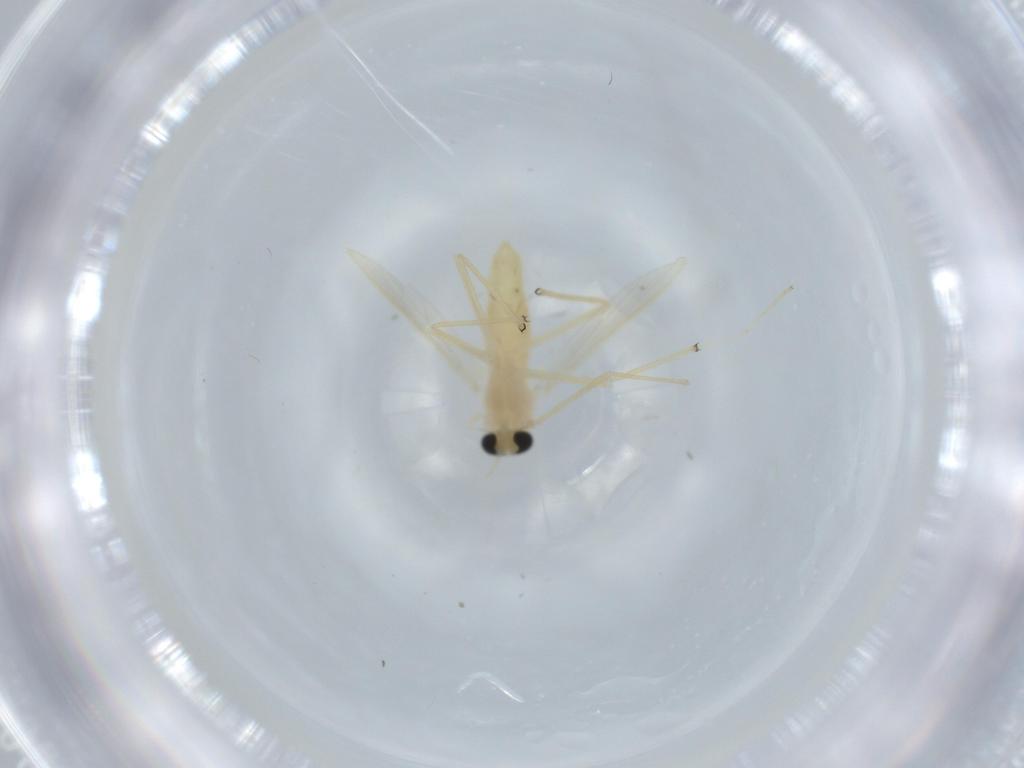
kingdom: Animalia
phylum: Arthropoda
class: Insecta
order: Diptera
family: Chironomidae
